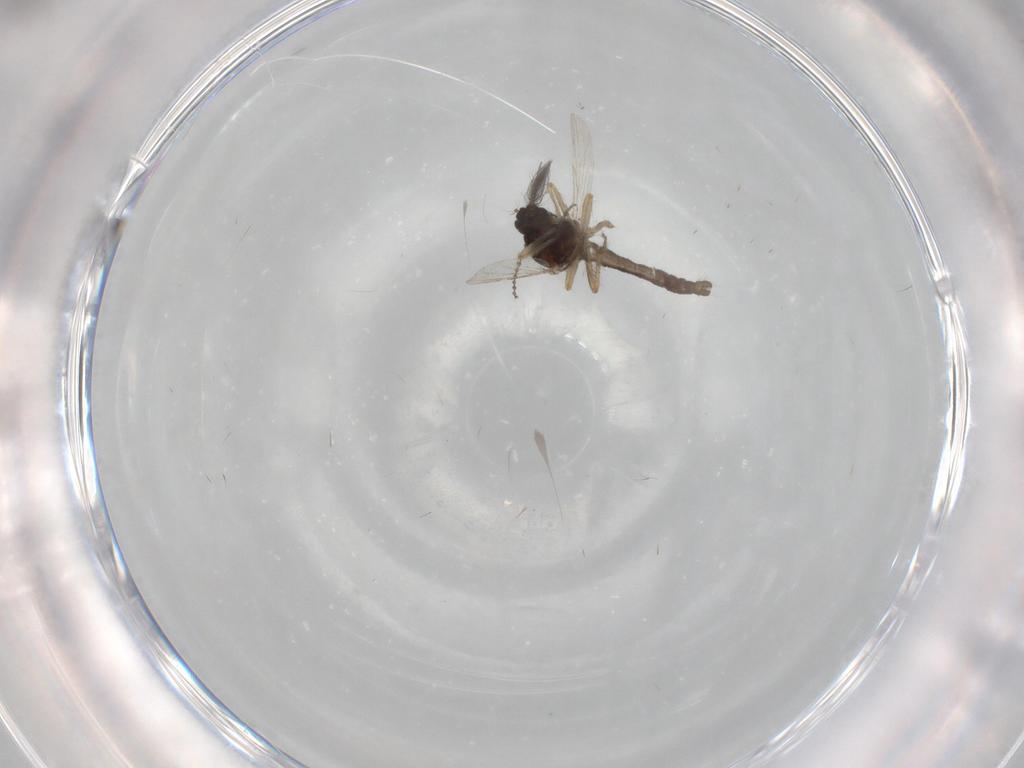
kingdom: Animalia
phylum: Arthropoda
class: Insecta
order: Diptera
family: Ceratopogonidae
